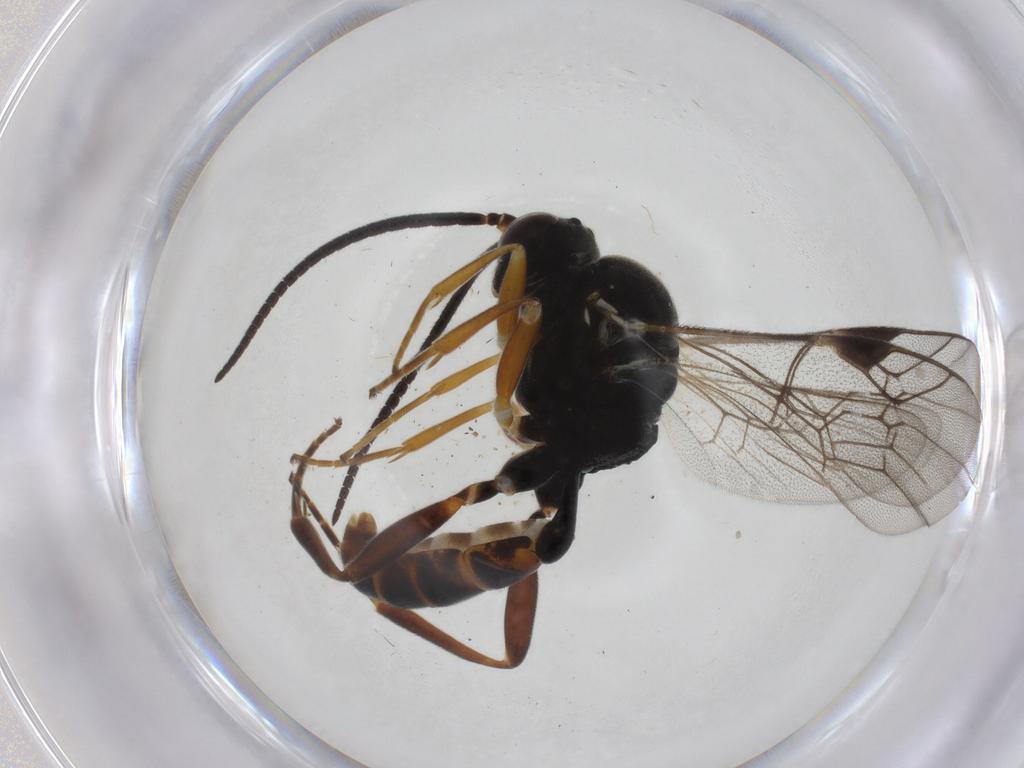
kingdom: Animalia
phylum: Arthropoda
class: Insecta
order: Hymenoptera
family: Ichneumonidae
